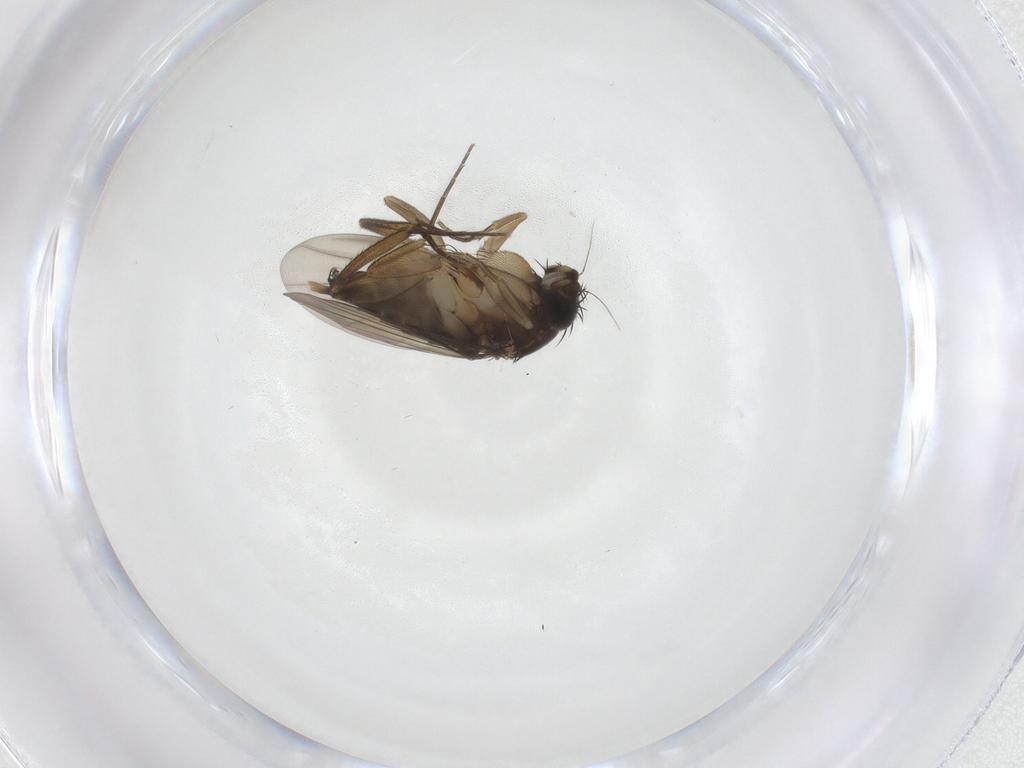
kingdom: Animalia
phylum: Arthropoda
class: Insecta
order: Diptera
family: Phoridae
